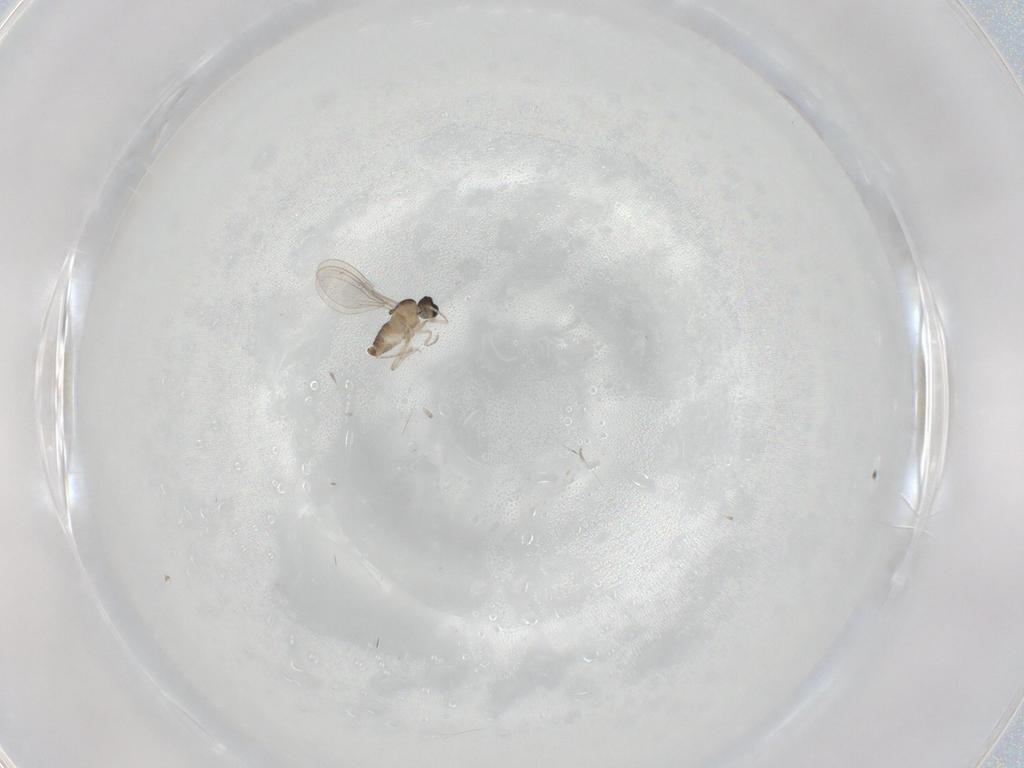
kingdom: Animalia
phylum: Arthropoda
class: Insecta
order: Diptera
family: Cecidomyiidae
